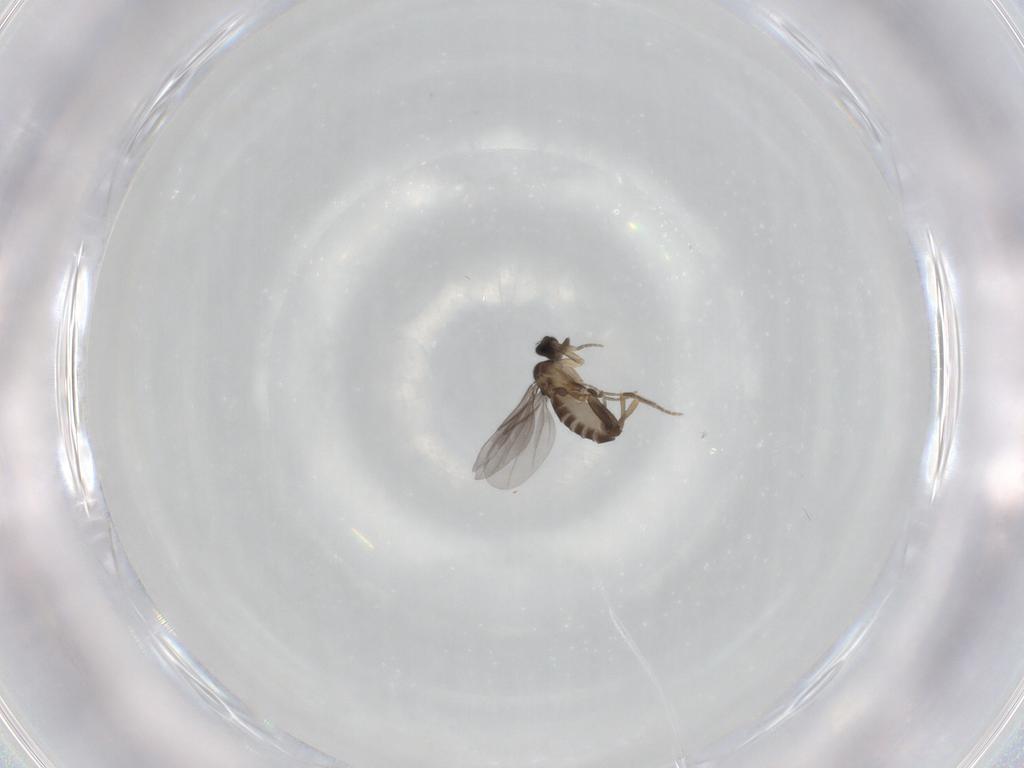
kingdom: Animalia
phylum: Arthropoda
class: Insecta
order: Diptera
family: Phoridae
